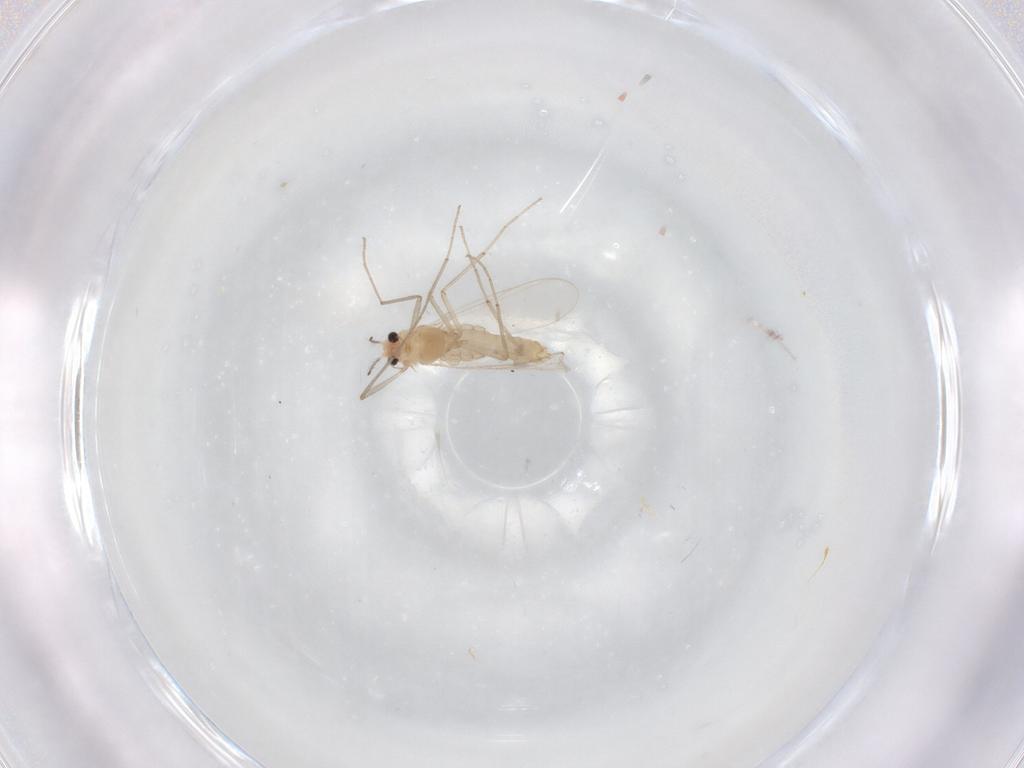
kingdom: Animalia
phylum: Arthropoda
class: Insecta
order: Diptera
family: Chironomidae
